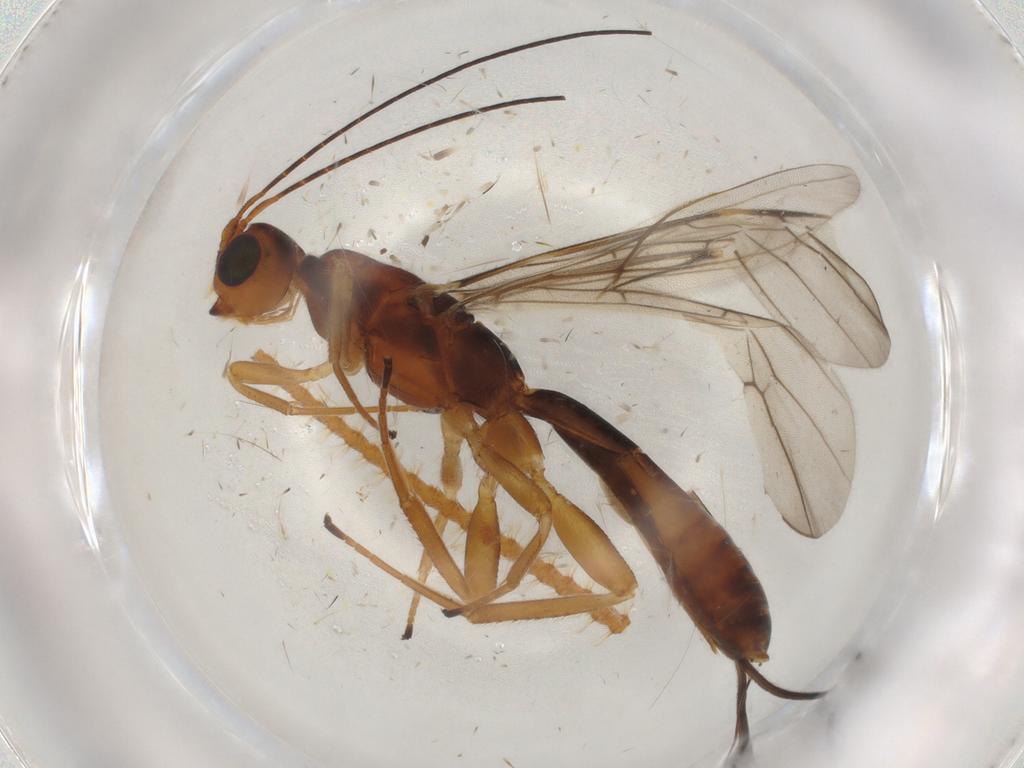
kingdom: Animalia
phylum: Arthropoda
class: Insecta
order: Hymenoptera
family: Braconidae
